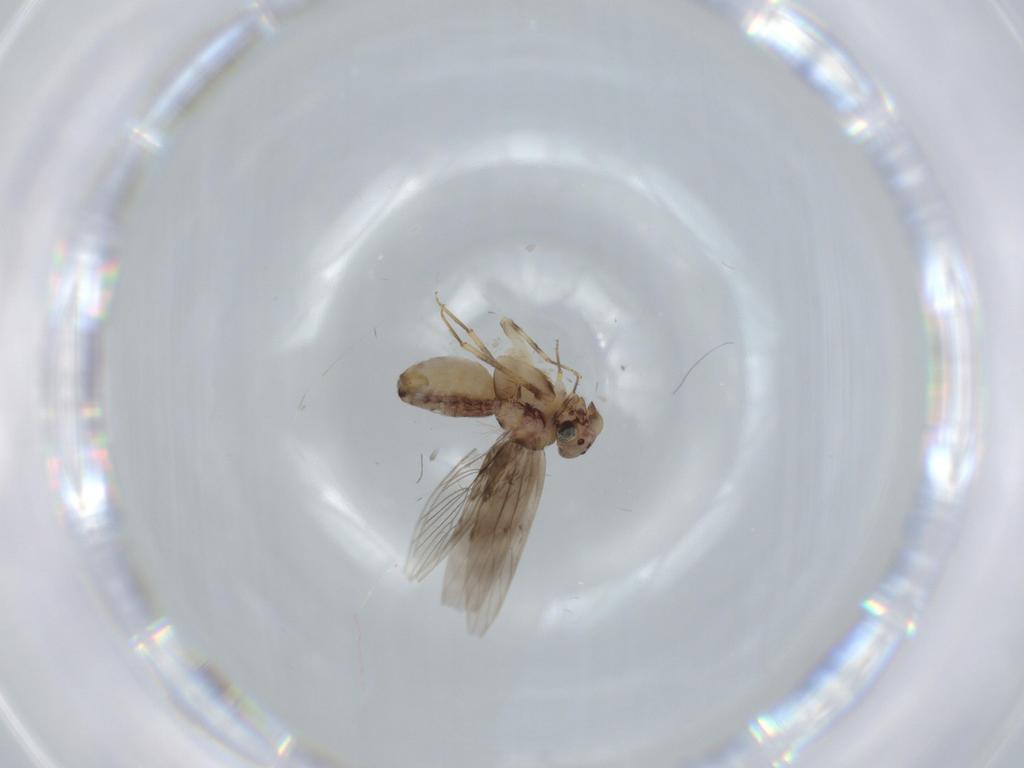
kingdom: Animalia
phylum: Arthropoda
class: Insecta
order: Psocodea
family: Lepidopsocidae
